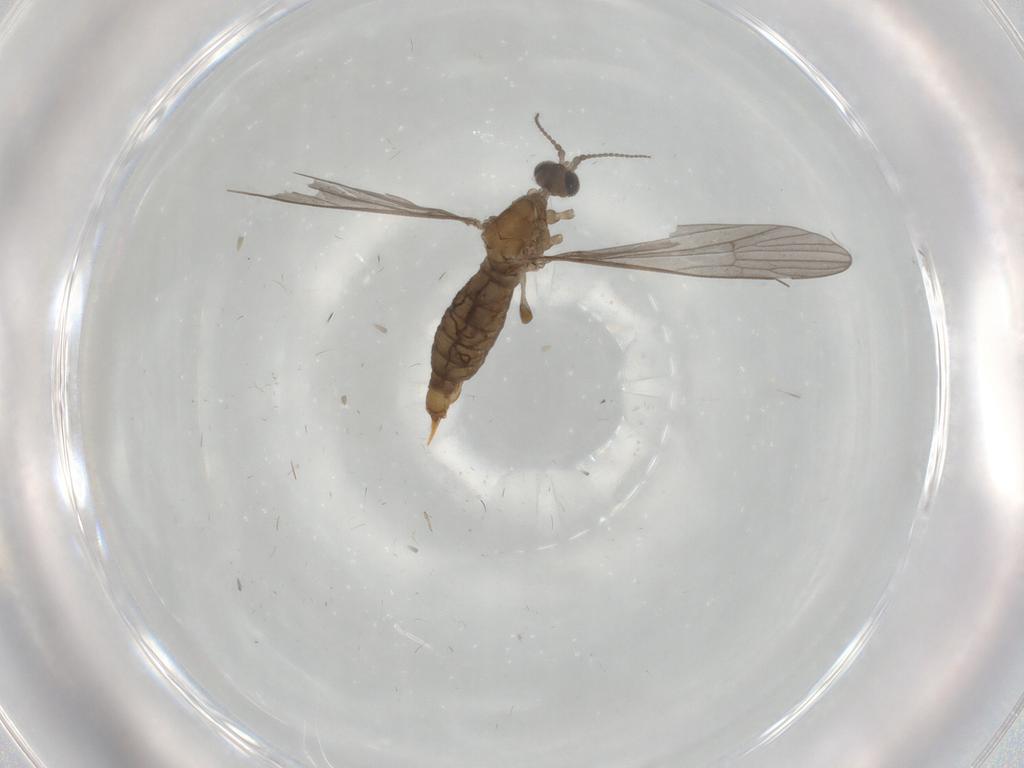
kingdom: Animalia
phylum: Arthropoda
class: Insecta
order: Diptera
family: Limoniidae
